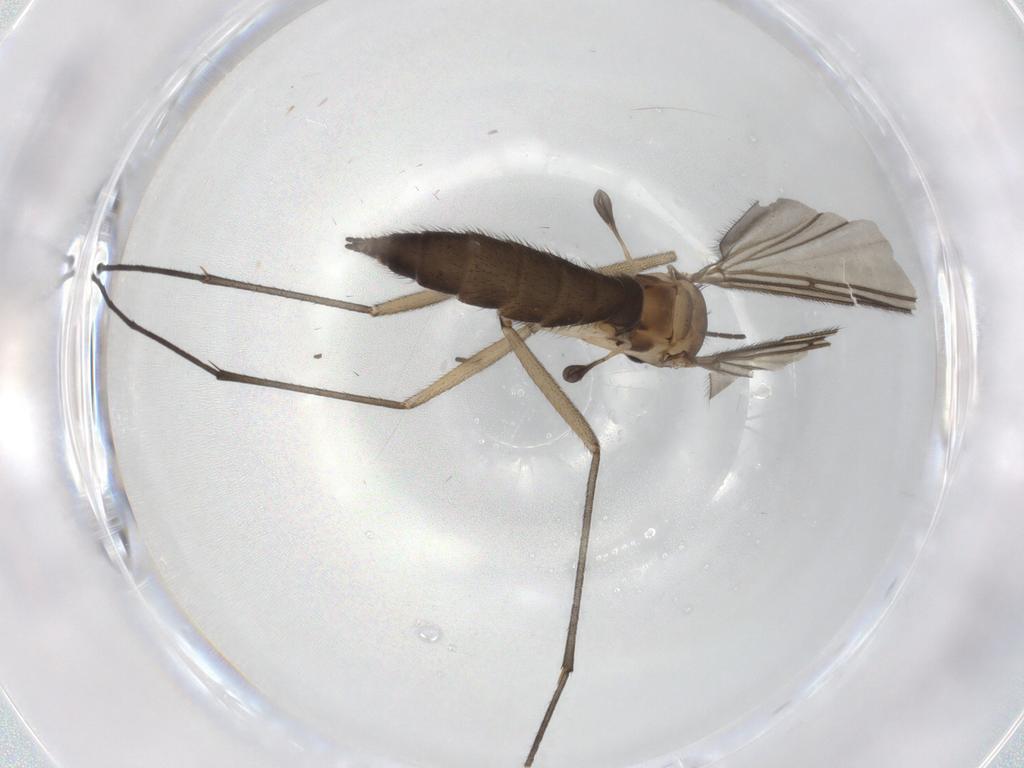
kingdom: Animalia
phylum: Arthropoda
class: Insecta
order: Diptera
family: Sciaridae
